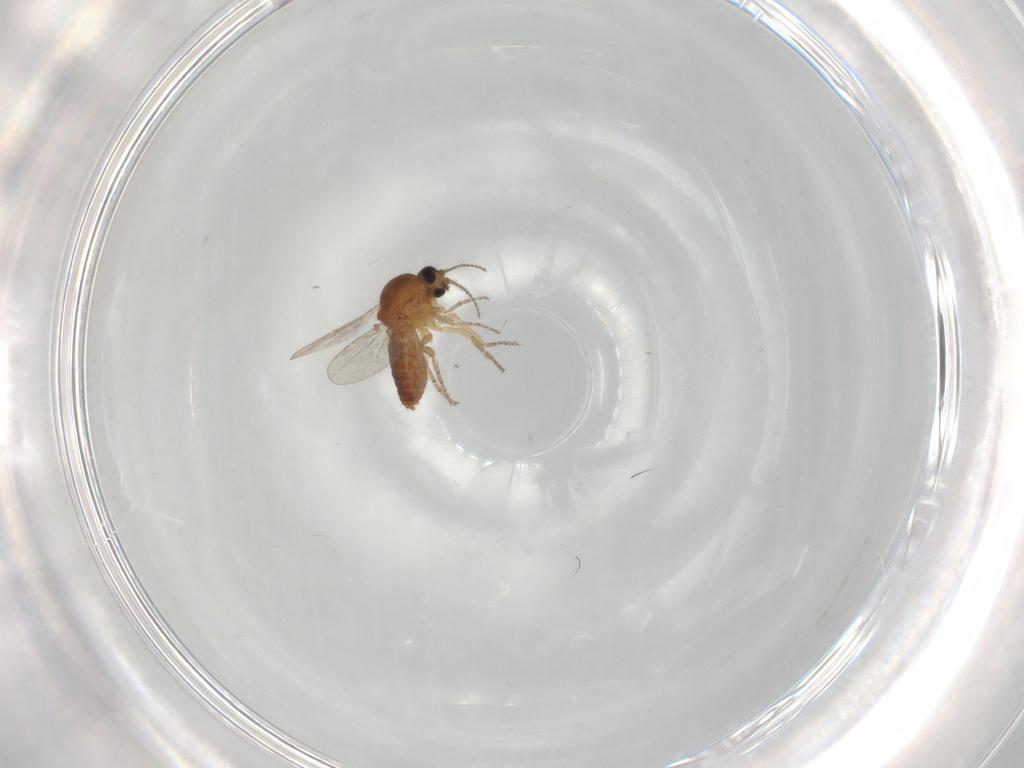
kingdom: Animalia
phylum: Arthropoda
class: Insecta
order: Diptera
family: Ceratopogonidae
